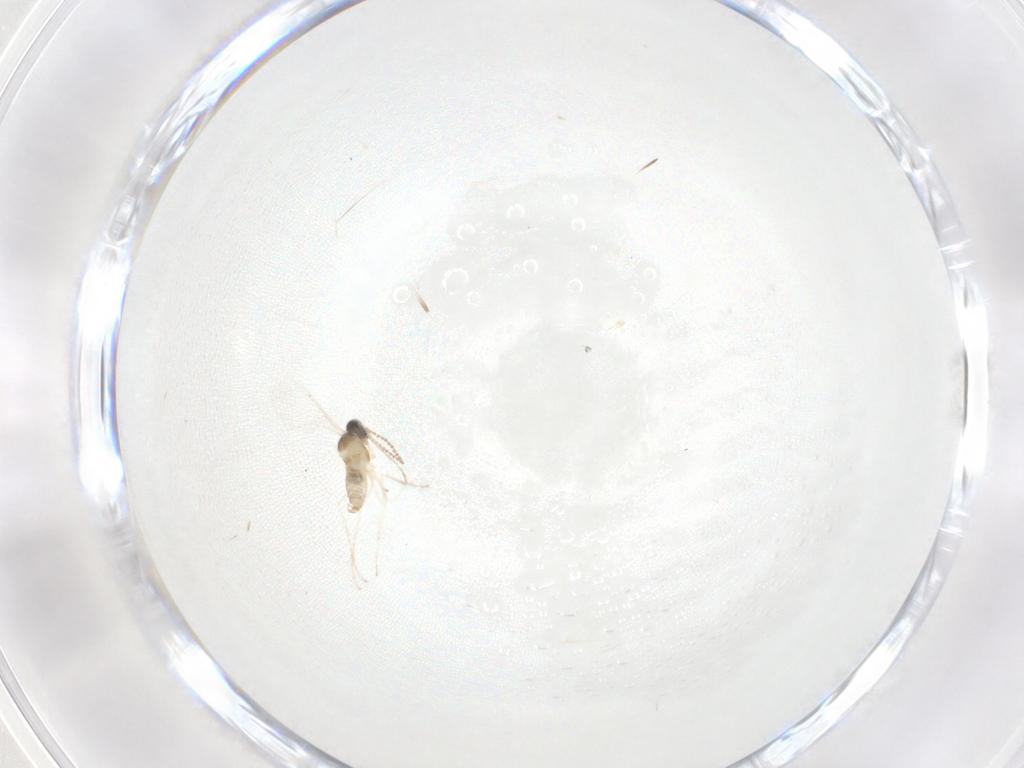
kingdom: Animalia
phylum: Arthropoda
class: Insecta
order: Diptera
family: Cecidomyiidae
